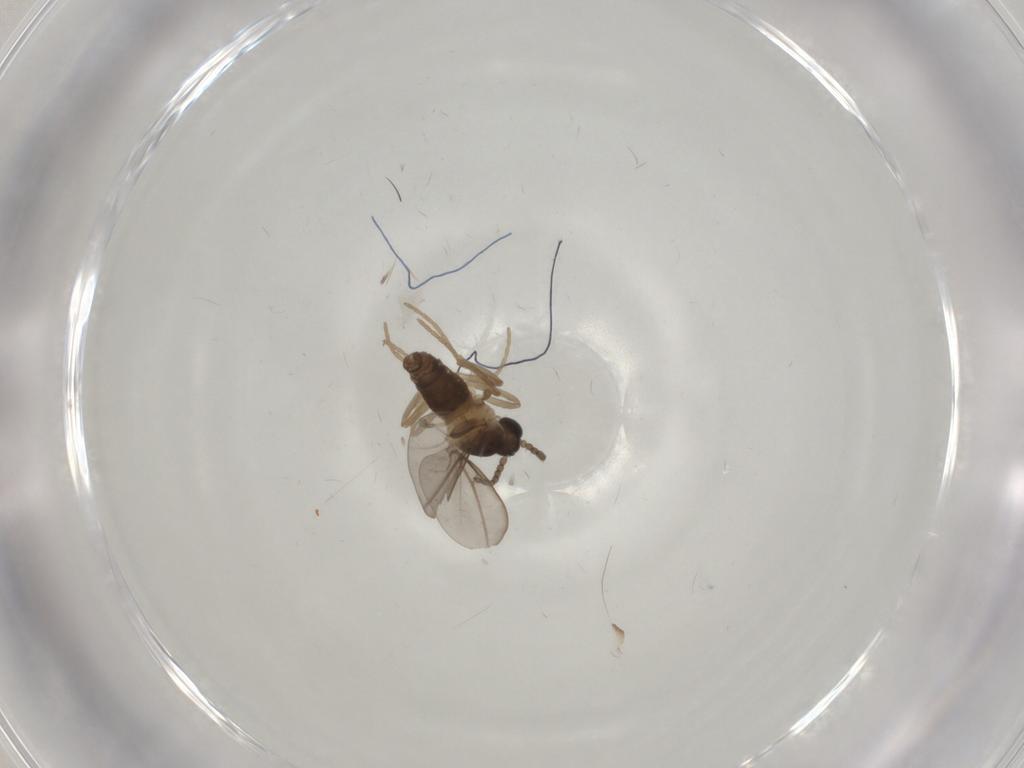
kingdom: Animalia
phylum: Arthropoda
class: Insecta
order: Diptera
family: Cecidomyiidae
